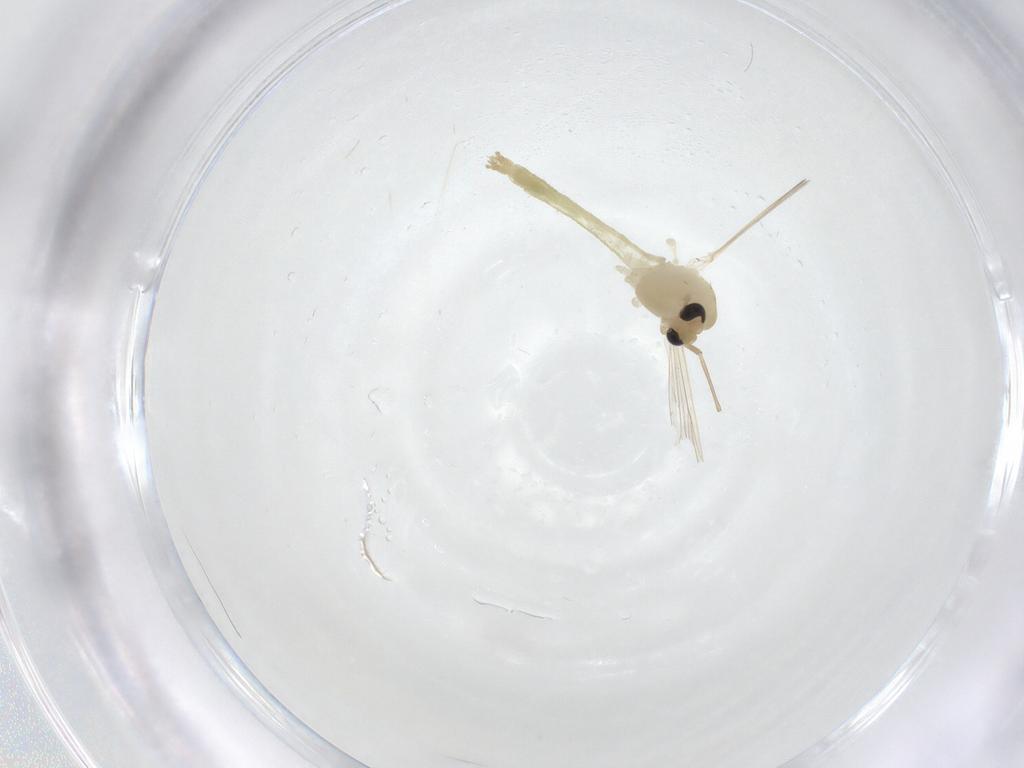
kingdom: Animalia
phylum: Arthropoda
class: Insecta
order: Diptera
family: Chironomidae
